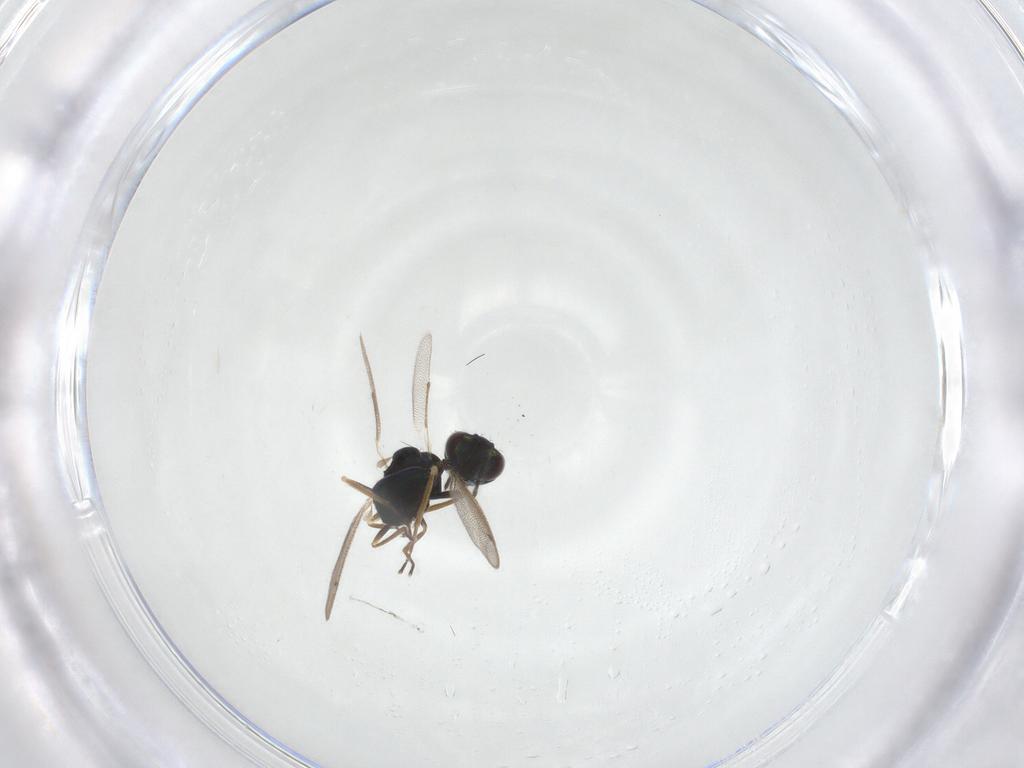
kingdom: Animalia
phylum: Arthropoda
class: Insecta
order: Hymenoptera
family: Eulophidae
